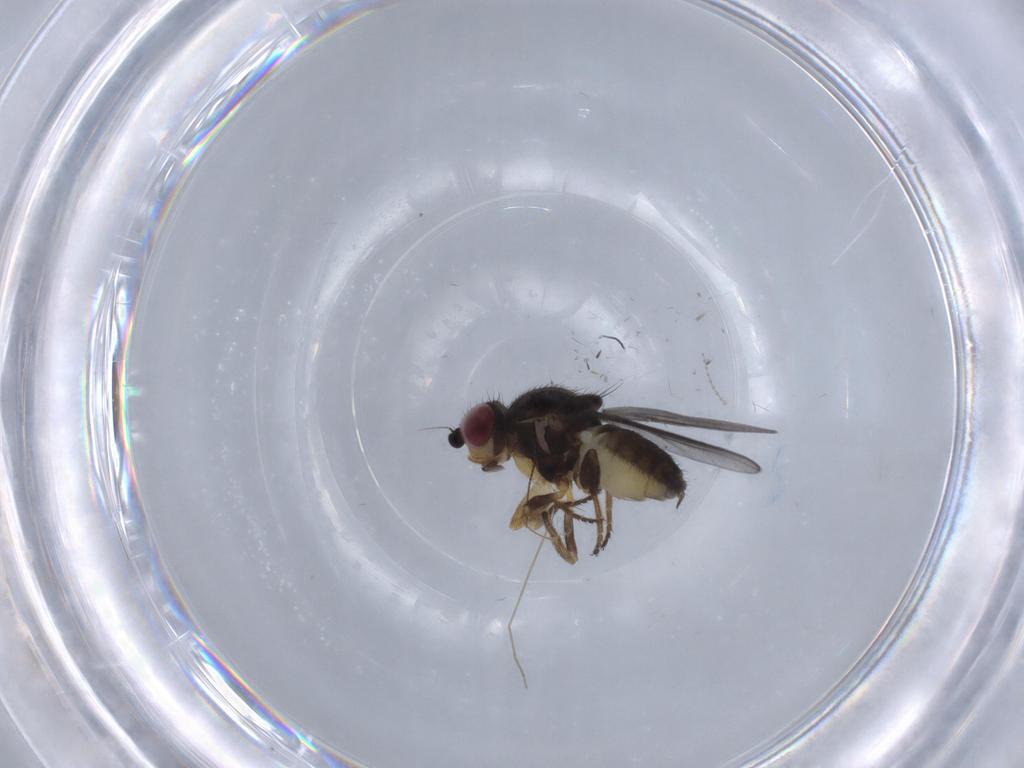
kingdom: Animalia
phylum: Arthropoda
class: Insecta
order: Diptera
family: Chloropidae
